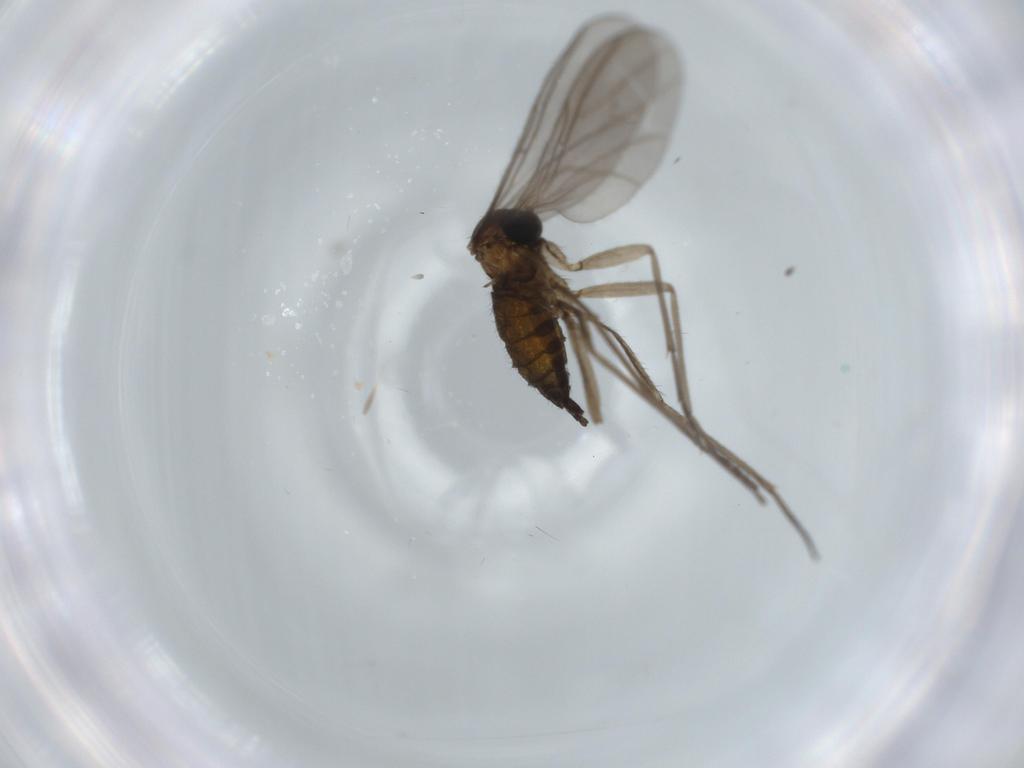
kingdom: Animalia
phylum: Arthropoda
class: Insecta
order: Diptera
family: Sciaridae
